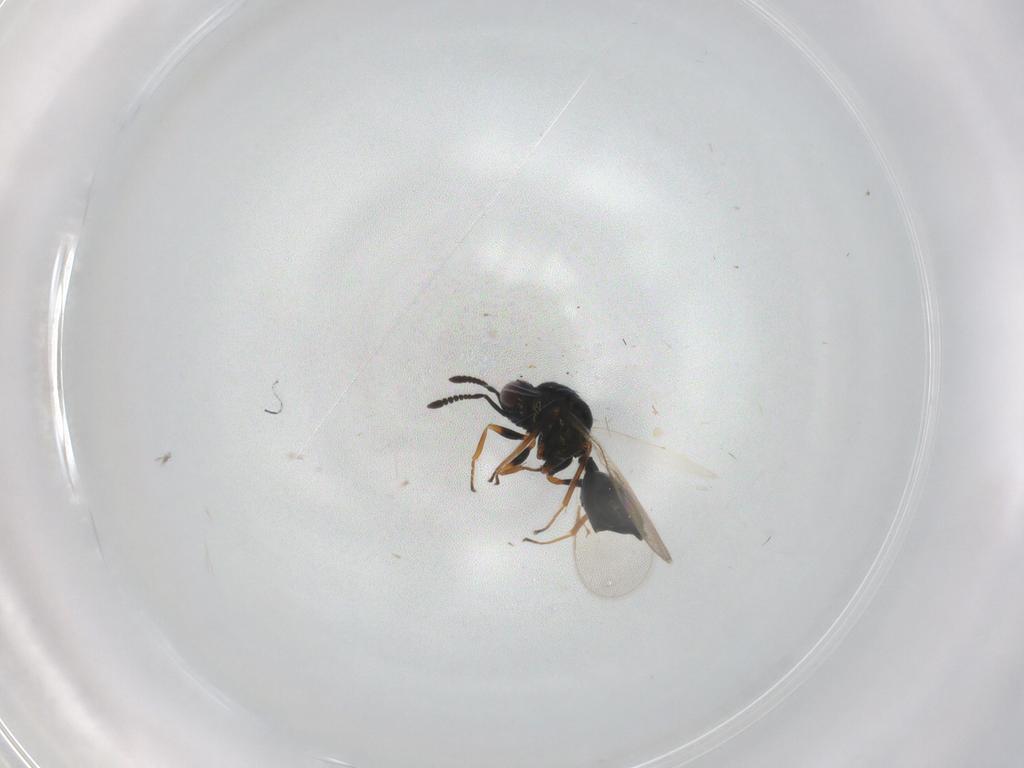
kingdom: Animalia
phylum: Arthropoda
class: Insecta
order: Hymenoptera
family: Chalcidoidea_incertae_sedis
